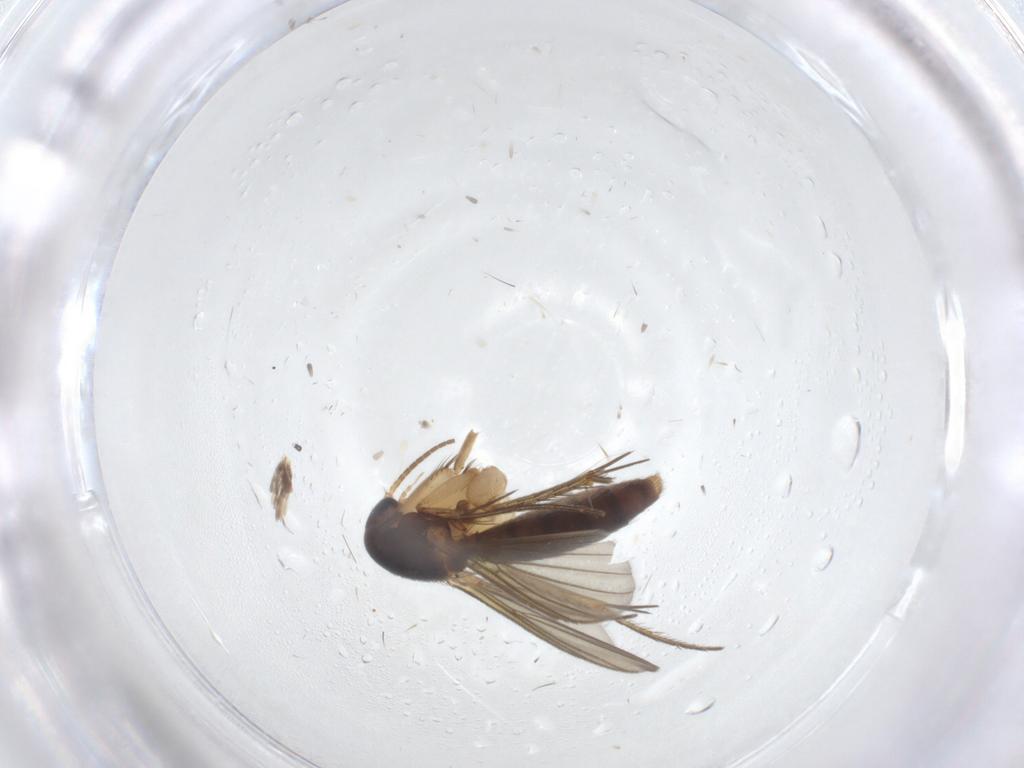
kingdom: Animalia
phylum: Arthropoda
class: Insecta
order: Diptera
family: Mycetophilidae
